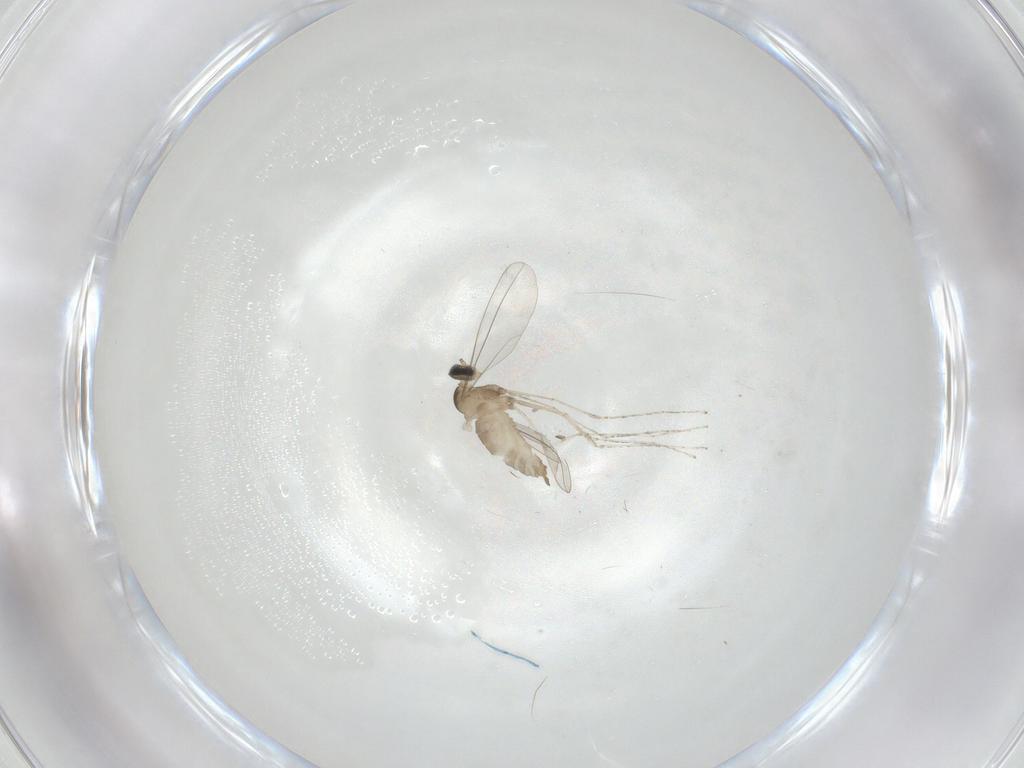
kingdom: Animalia
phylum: Arthropoda
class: Insecta
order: Diptera
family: Cecidomyiidae
